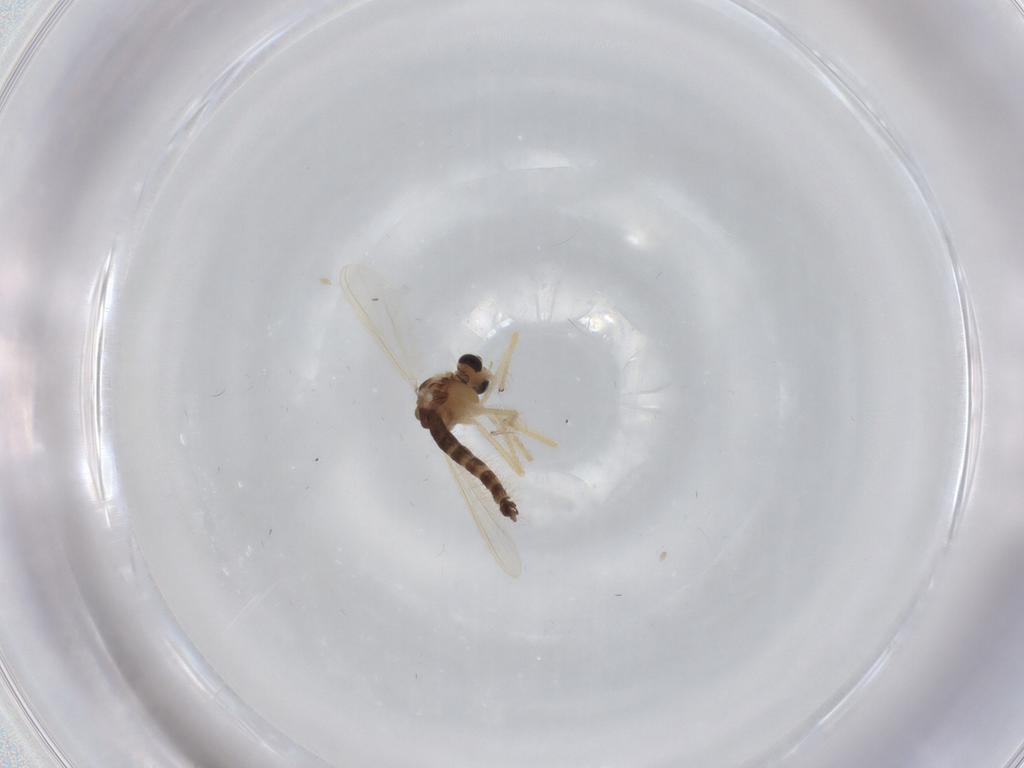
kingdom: Animalia
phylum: Arthropoda
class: Insecta
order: Diptera
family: Chironomidae
